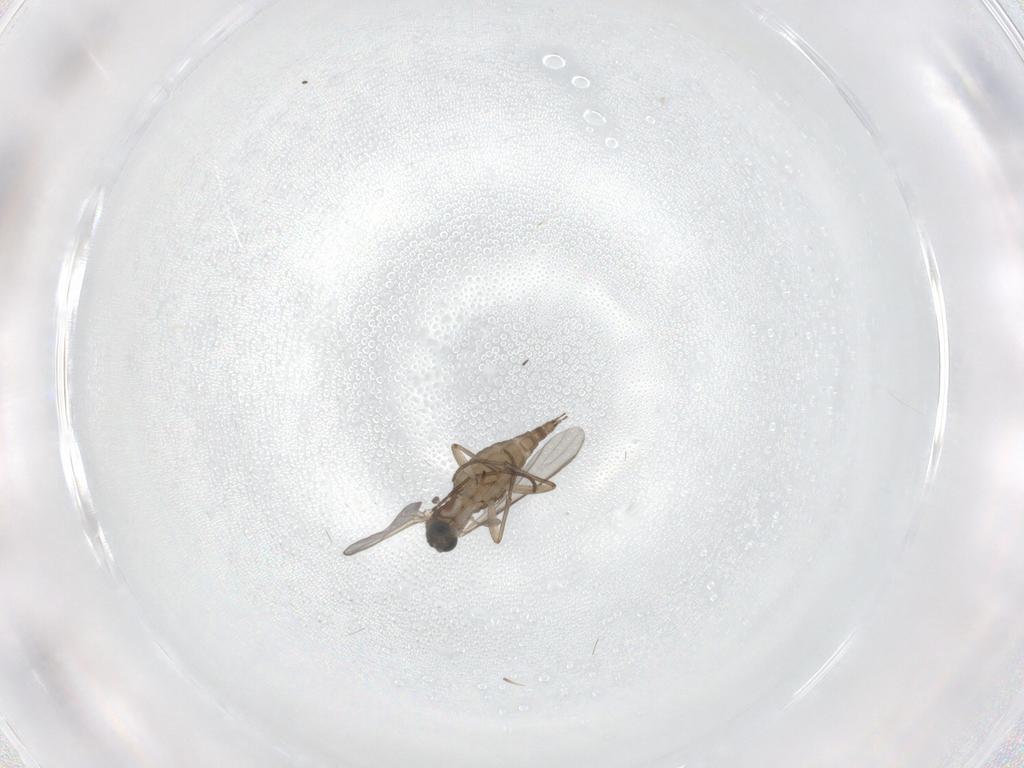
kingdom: Animalia
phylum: Arthropoda
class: Insecta
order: Diptera
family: Sciaridae
